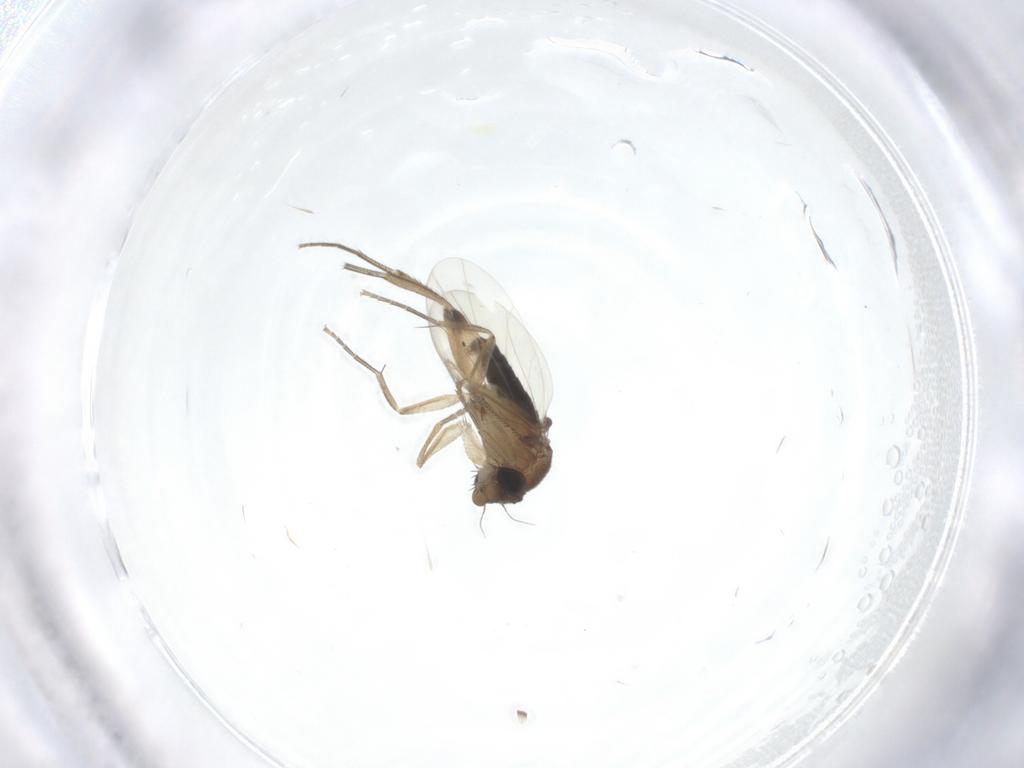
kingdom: Animalia
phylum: Arthropoda
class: Insecta
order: Diptera
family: Phoridae
